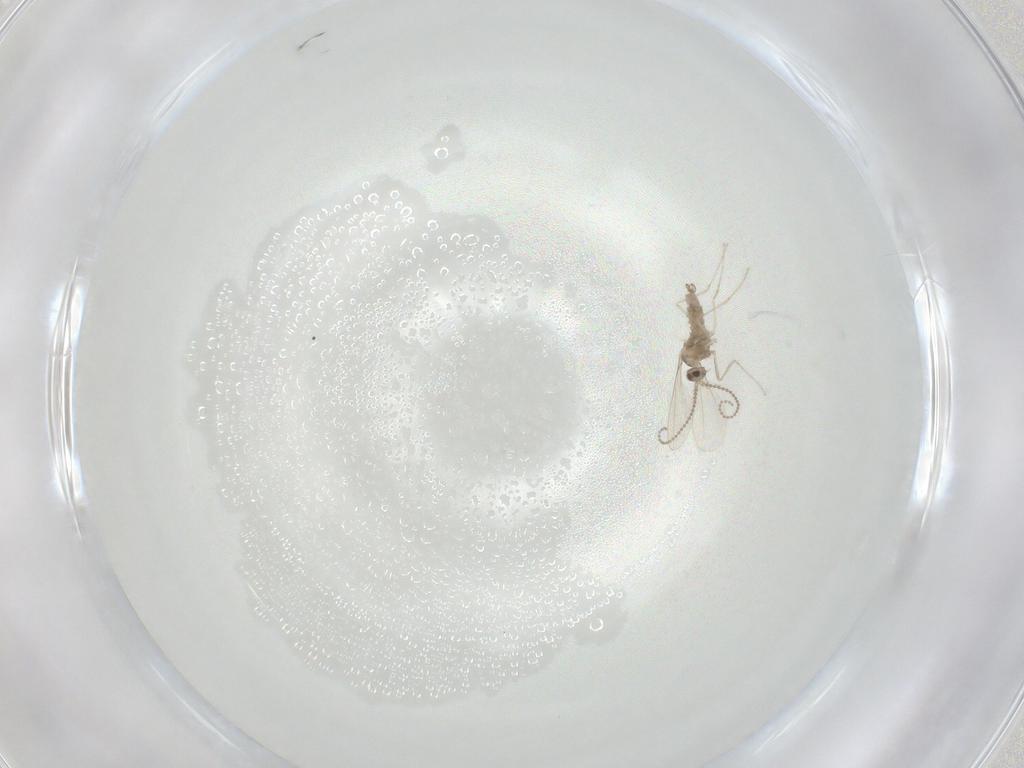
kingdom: Animalia
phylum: Arthropoda
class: Insecta
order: Diptera
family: Cecidomyiidae
